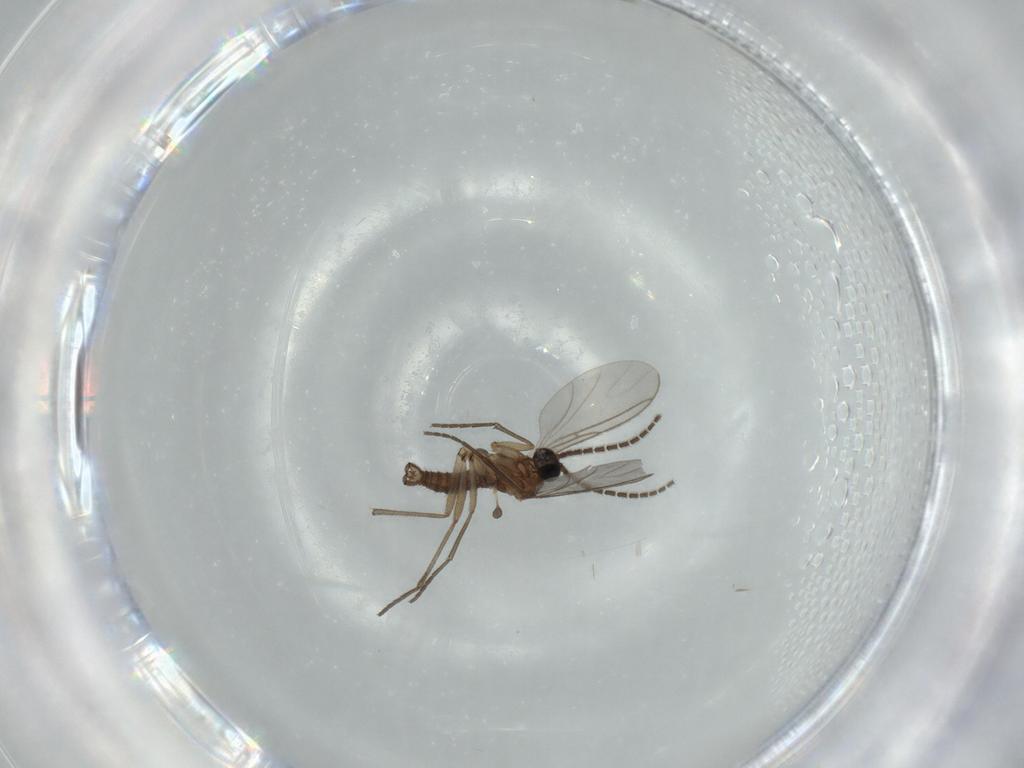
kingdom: Animalia
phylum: Arthropoda
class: Insecta
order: Diptera
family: Sciaridae
